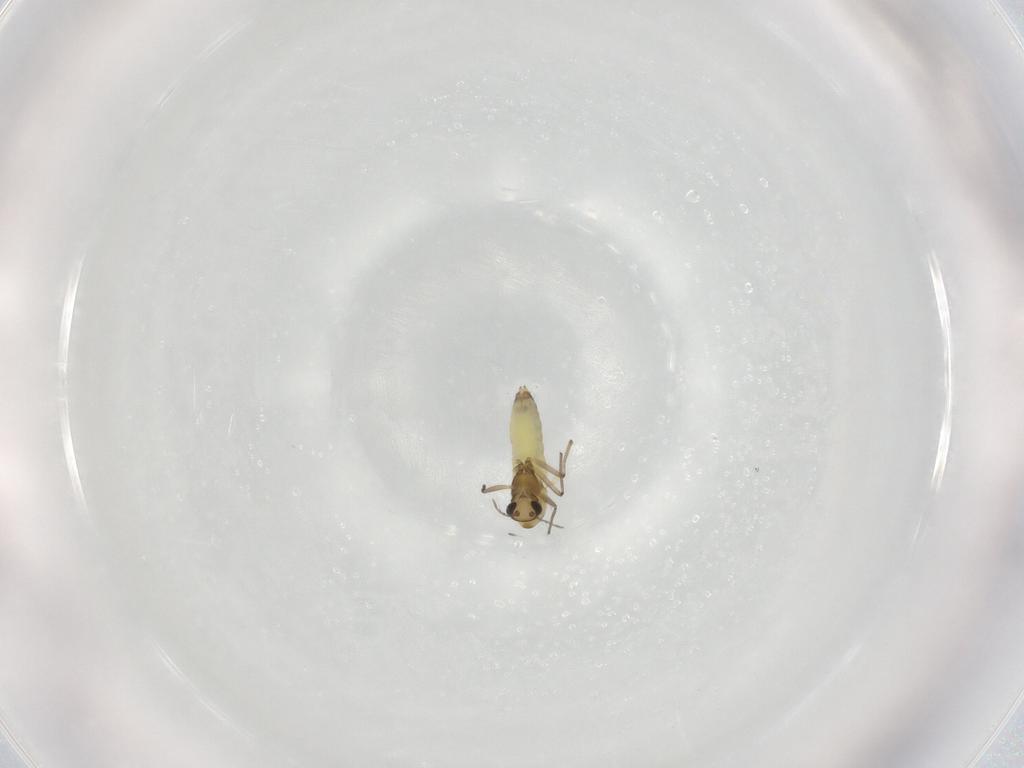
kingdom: Animalia
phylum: Arthropoda
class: Insecta
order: Diptera
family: Chironomidae
